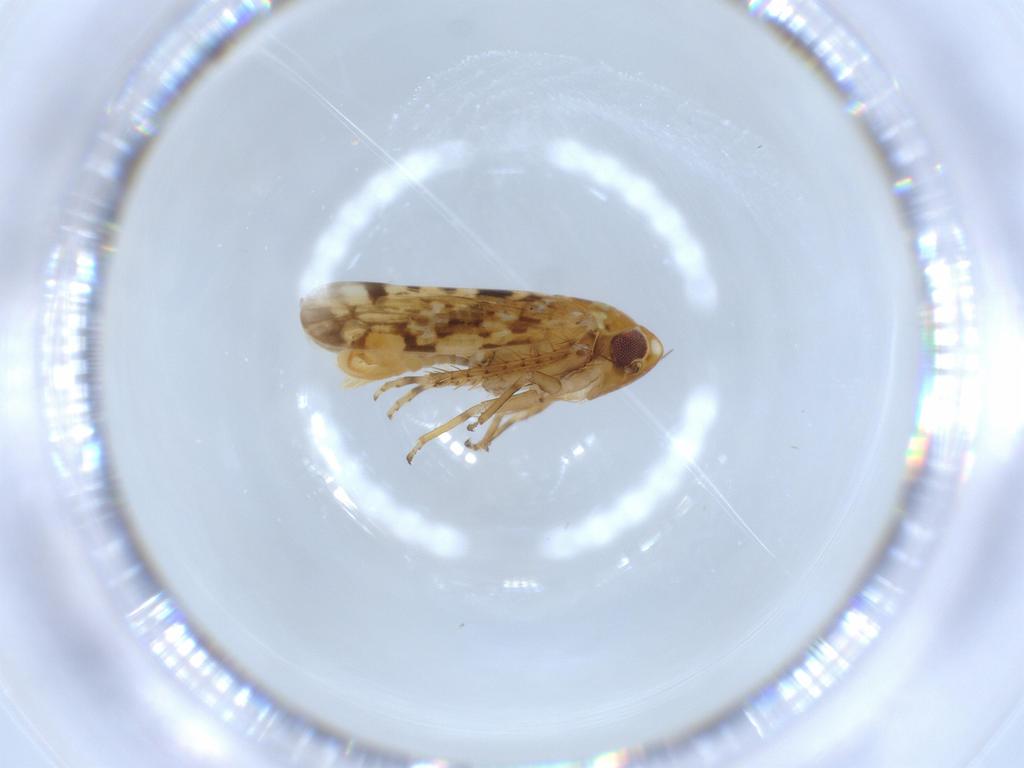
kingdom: Animalia
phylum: Arthropoda
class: Insecta
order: Hemiptera
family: Cicadellidae
